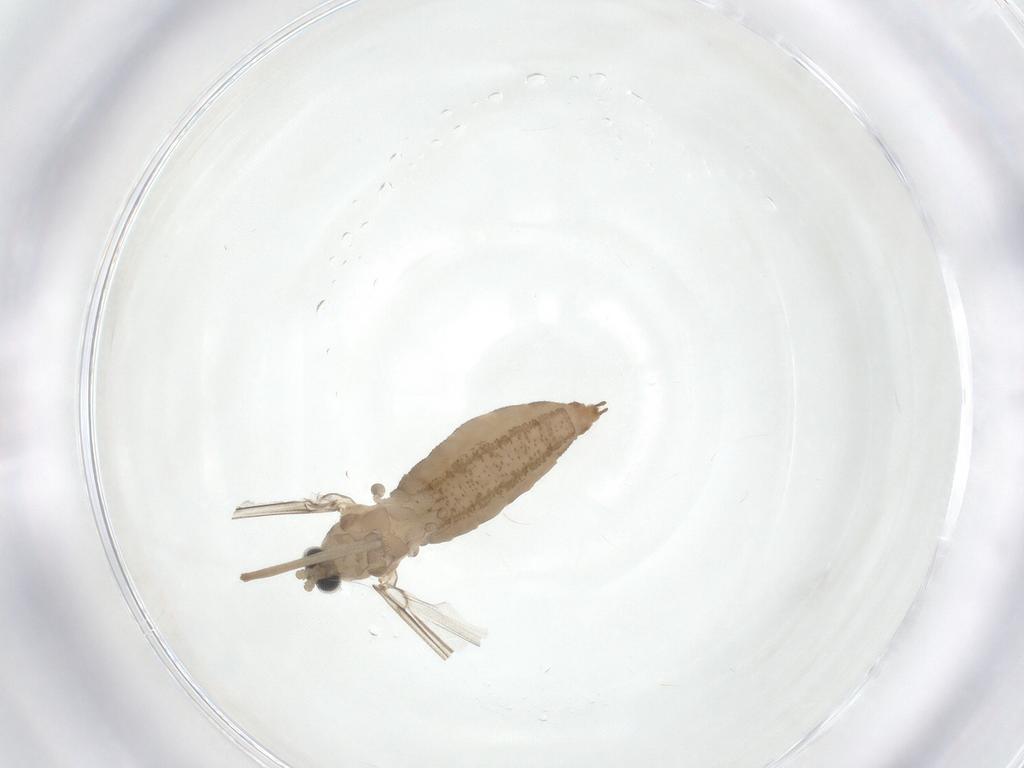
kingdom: Animalia
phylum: Arthropoda
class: Insecta
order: Diptera
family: Cecidomyiidae
